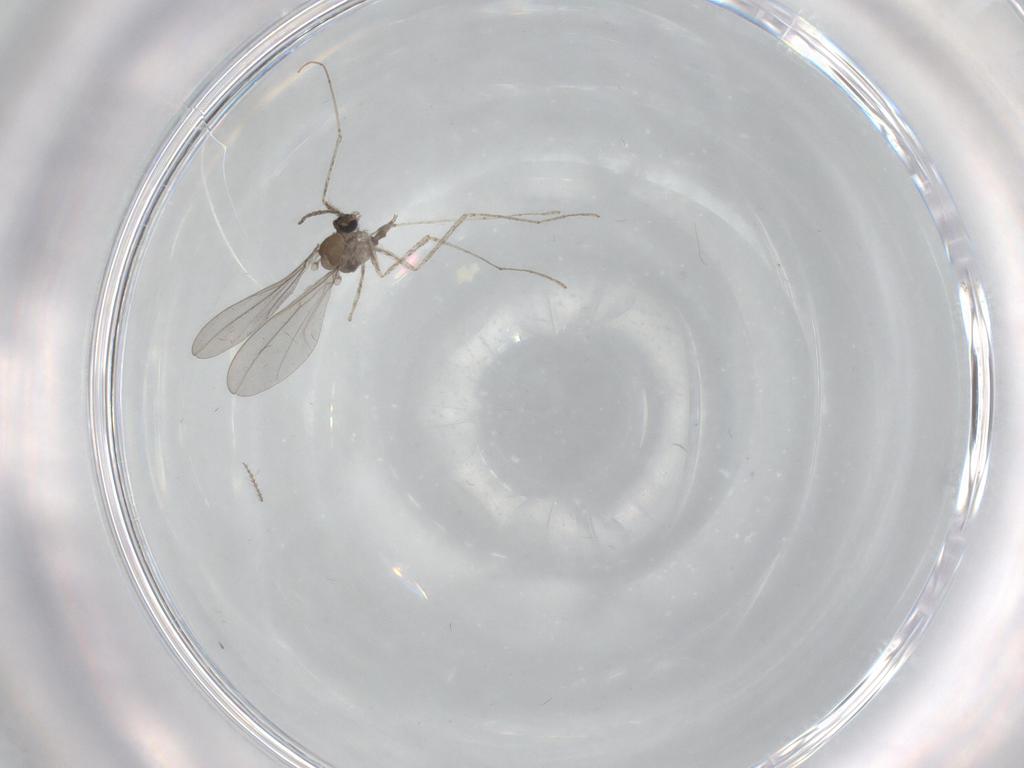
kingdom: Animalia
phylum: Arthropoda
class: Insecta
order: Diptera
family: Cecidomyiidae
